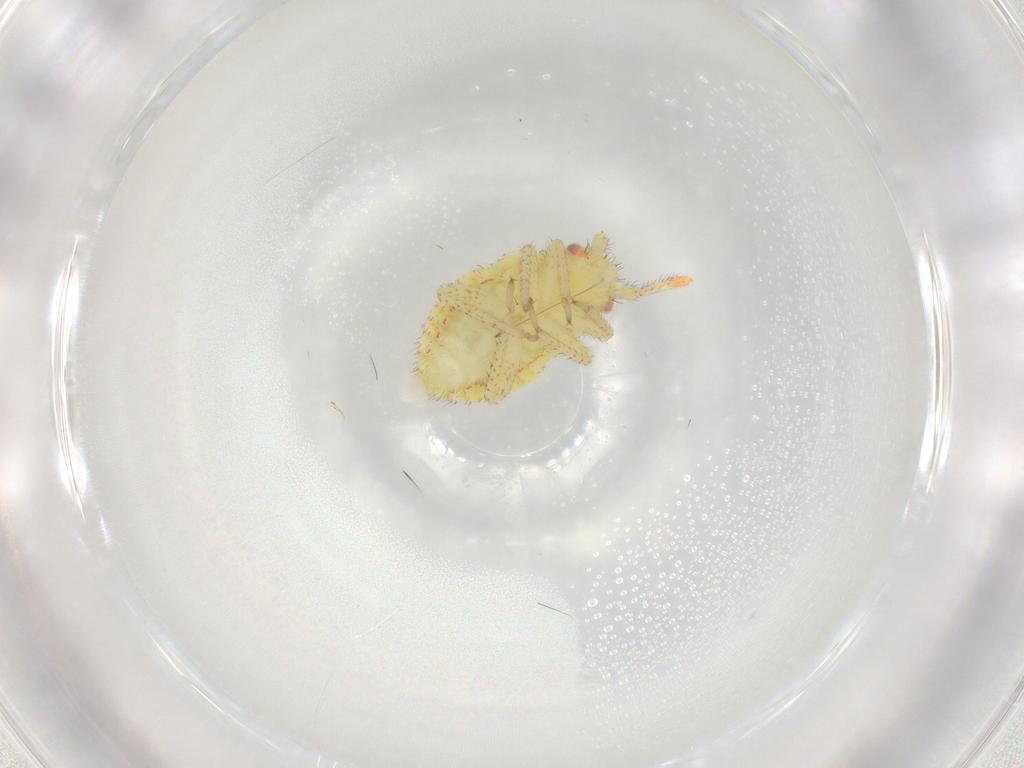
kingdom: Animalia
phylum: Arthropoda
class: Insecta
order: Hemiptera
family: Miridae
